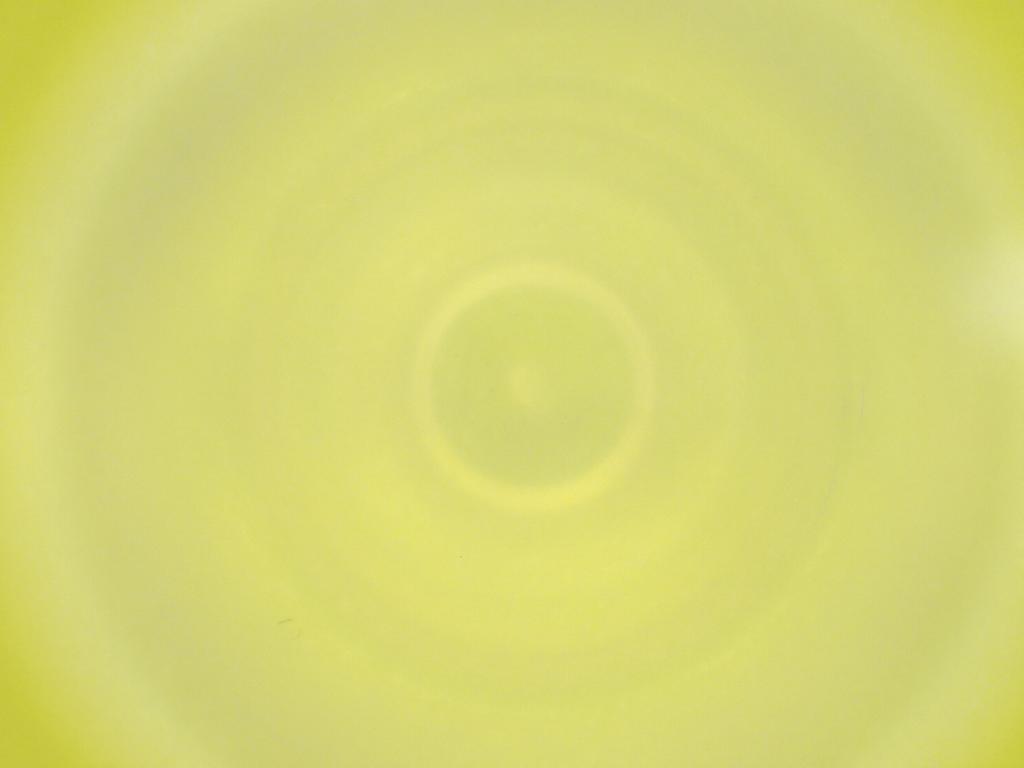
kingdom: Animalia
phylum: Arthropoda
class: Insecta
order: Diptera
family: Cecidomyiidae
